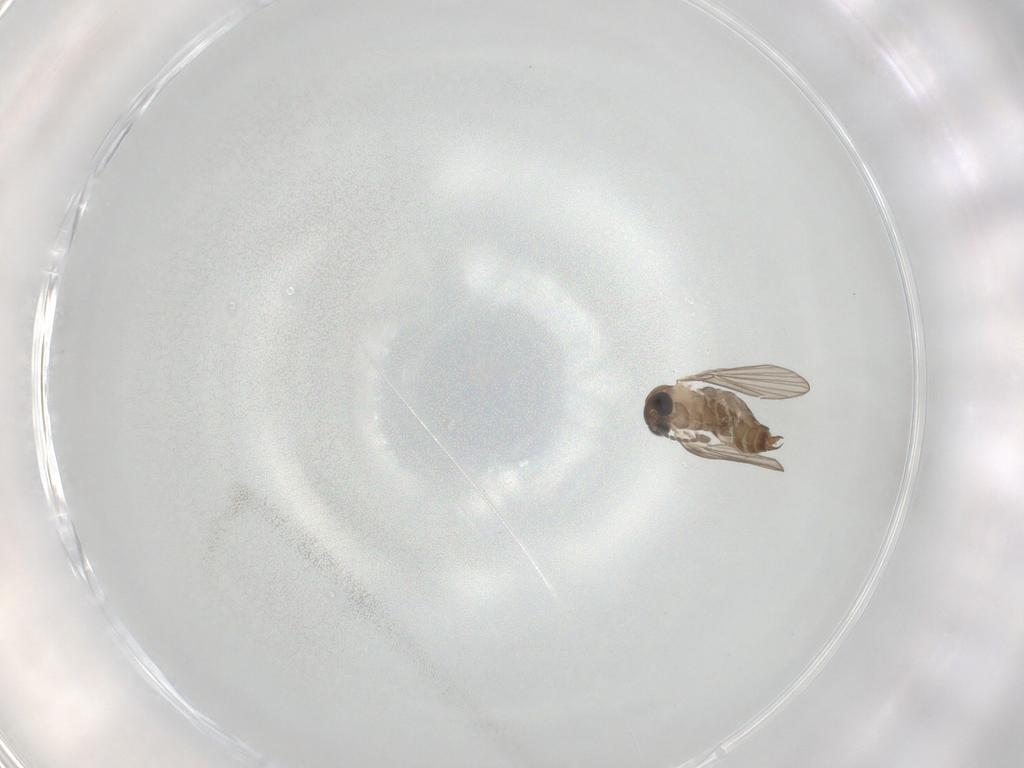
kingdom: Animalia
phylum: Arthropoda
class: Insecta
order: Diptera
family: Psychodidae
